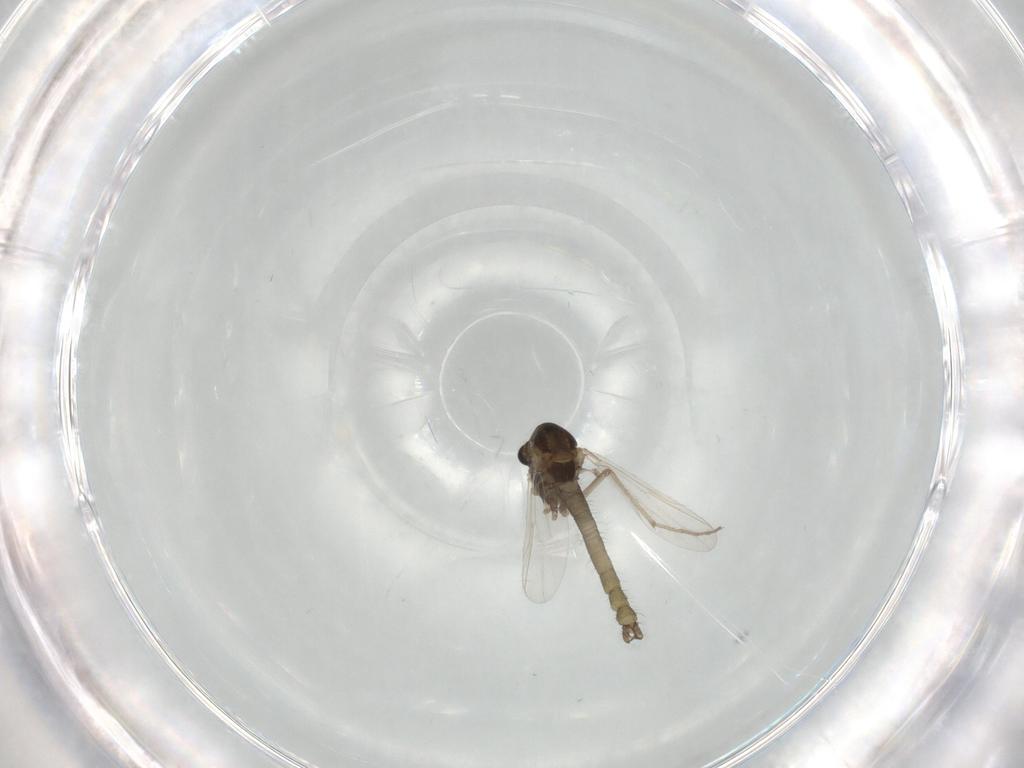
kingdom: Animalia
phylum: Arthropoda
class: Insecta
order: Diptera
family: Chironomidae
